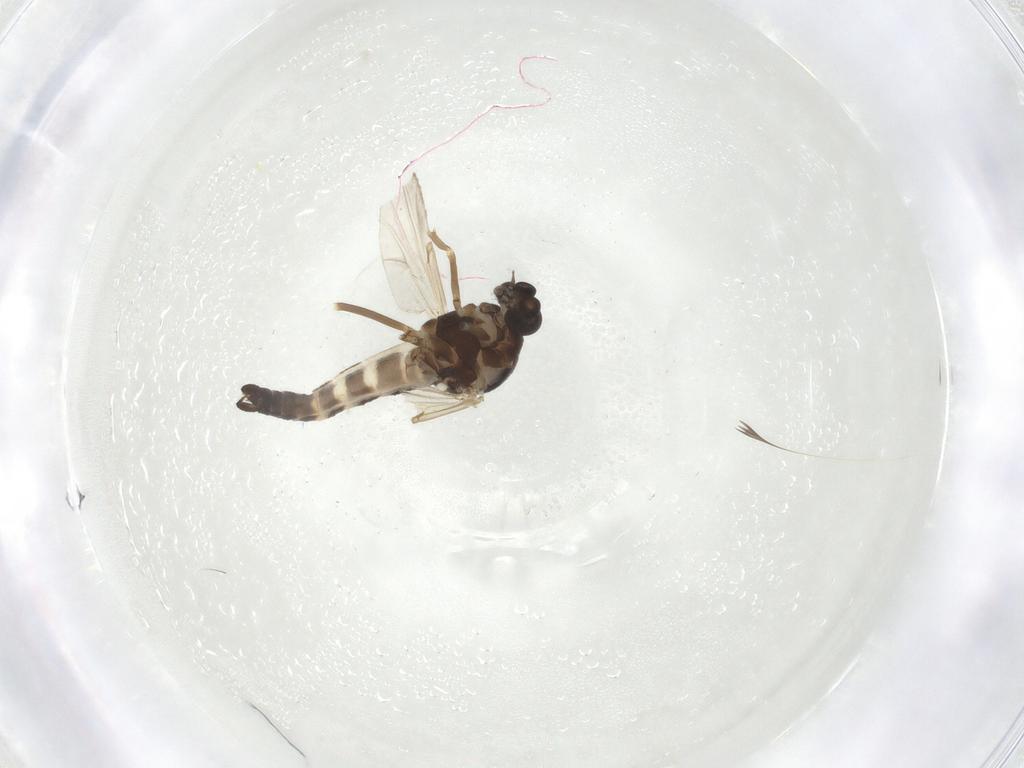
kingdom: Animalia
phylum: Arthropoda
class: Insecta
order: Diptera
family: Ceratopogonidae
